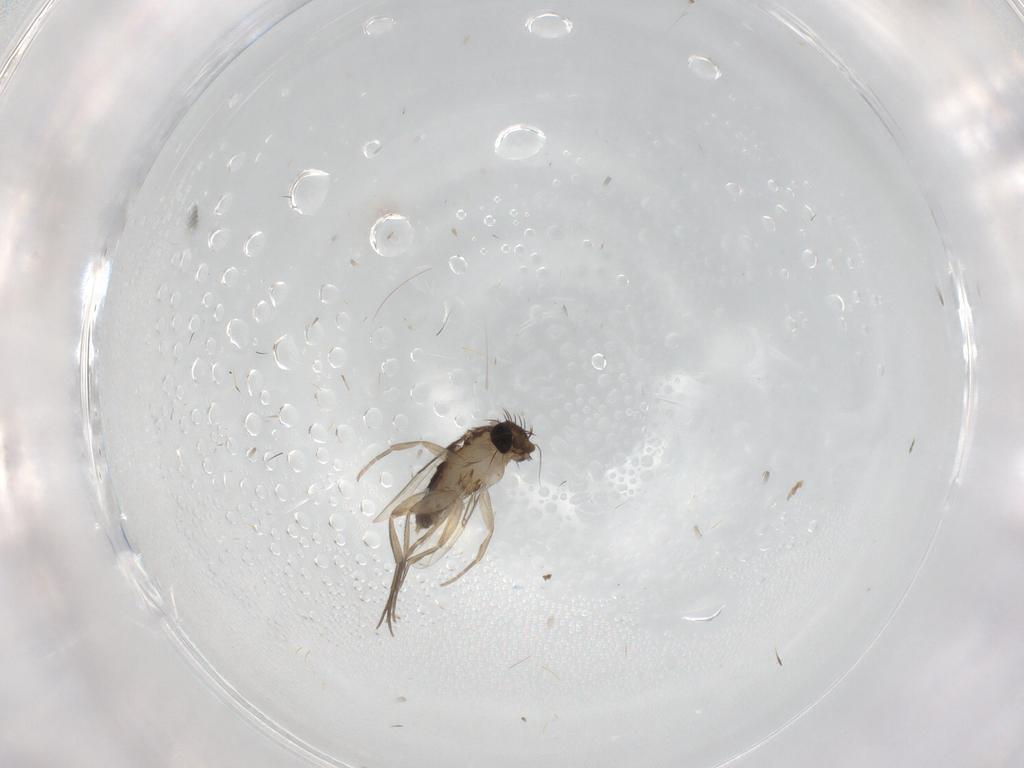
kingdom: Animalia
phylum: Arthropoda
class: Insecta
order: Diptera
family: Phoridae
